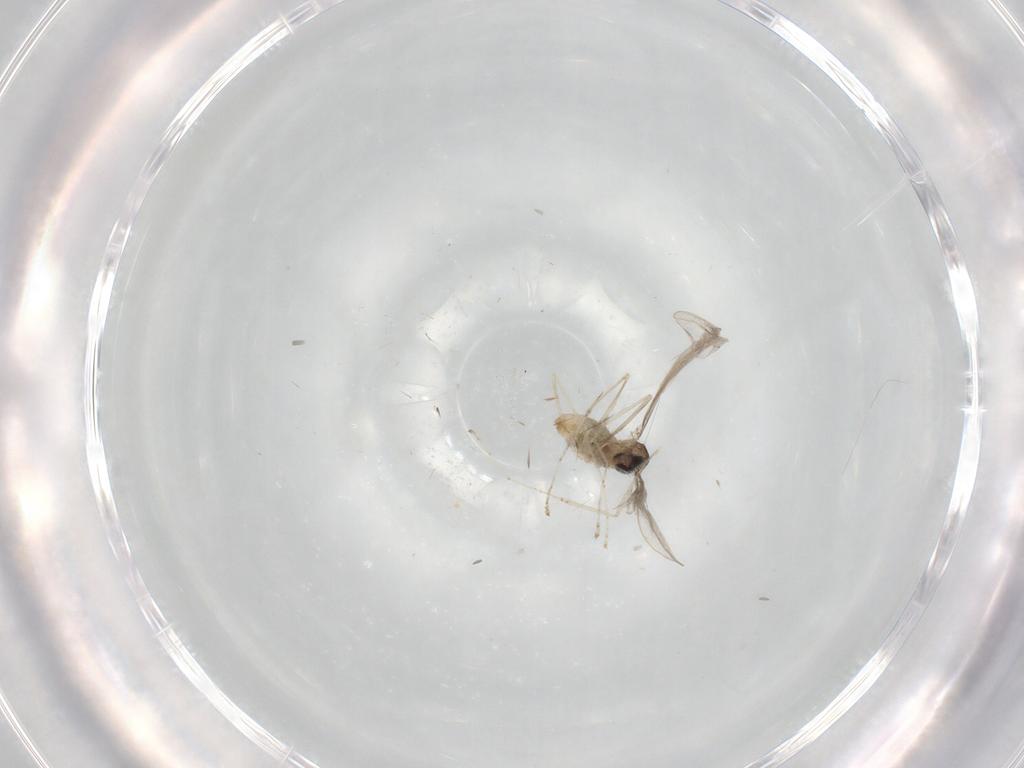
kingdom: Animalia
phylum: Arthropoda
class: Insecta
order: Diptera
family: Cecidomyiidae
